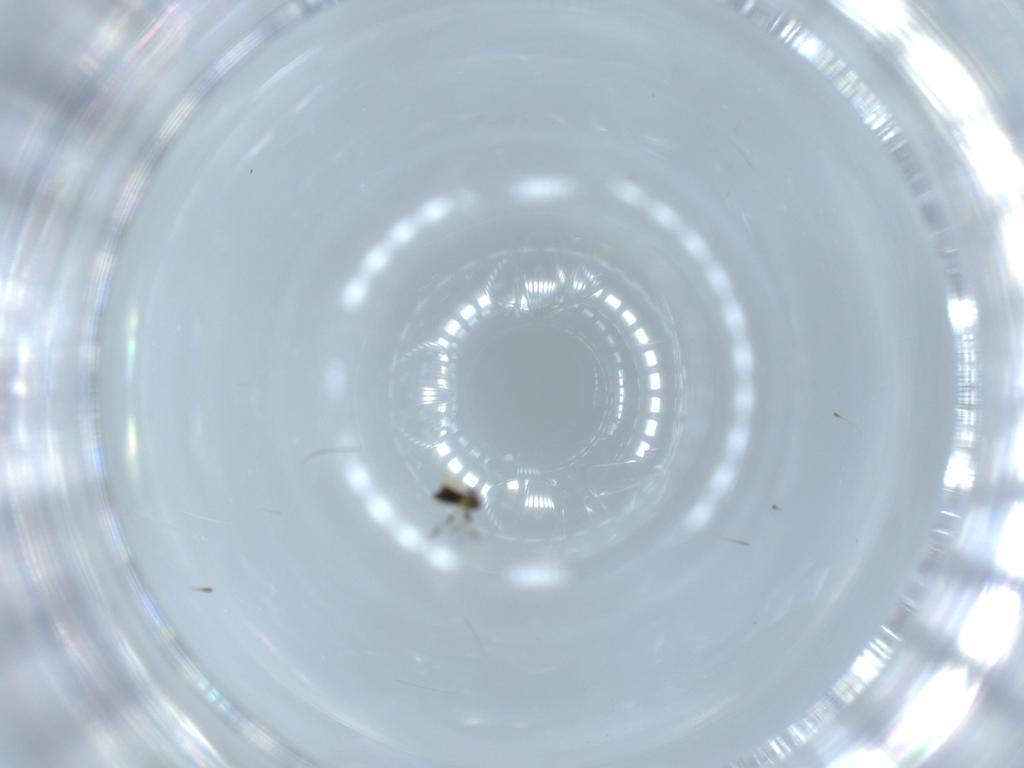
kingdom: Animalia
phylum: Arthropoda
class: Insecta
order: Hymenoptera
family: Signiphoridae
